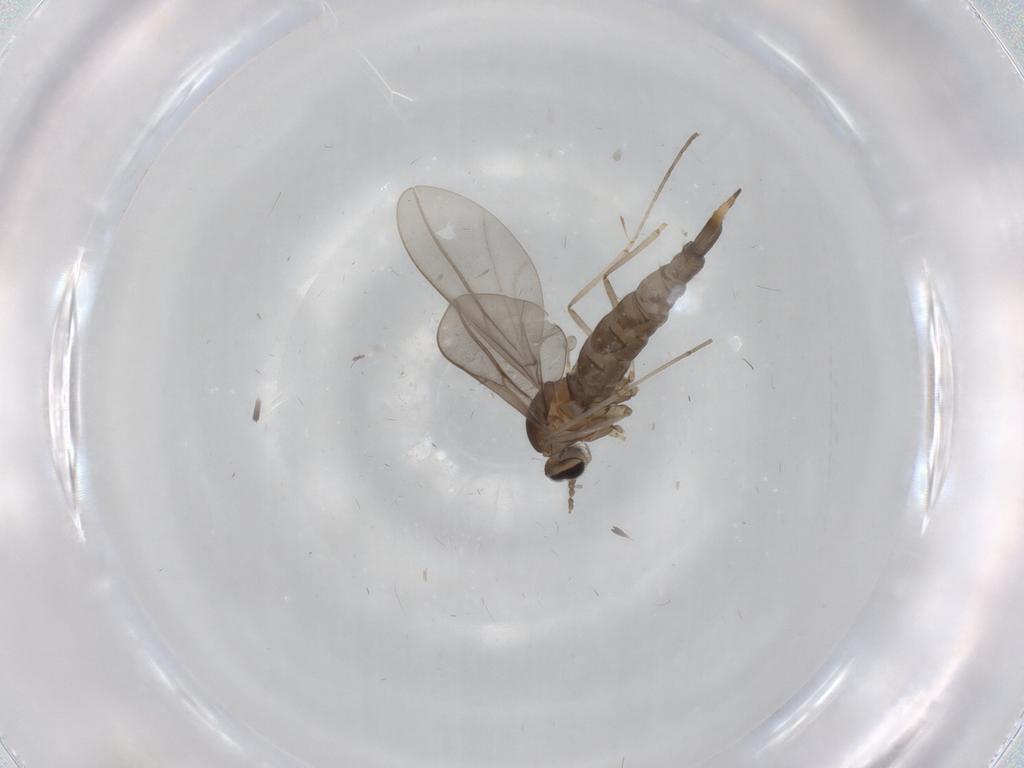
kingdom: Animalia
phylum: Arthropoda
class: Insecta
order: Diptera
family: Cecidomyiidae
